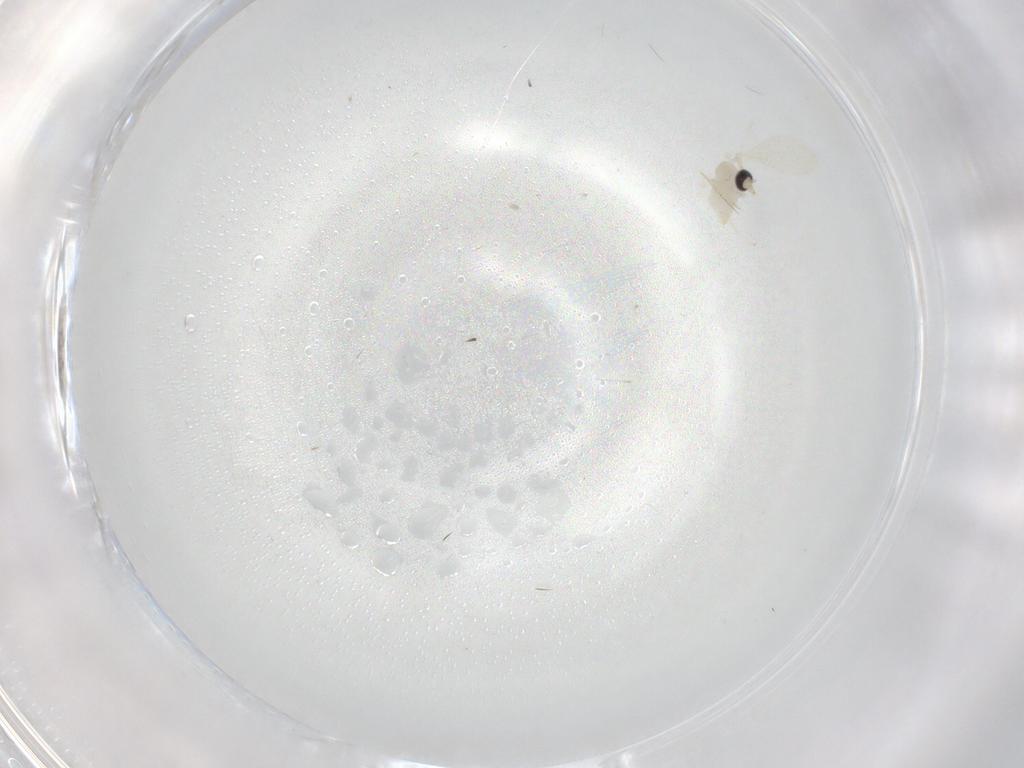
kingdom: Animalia
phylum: Arthropoda
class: Insecta
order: Diptera
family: Chironomidae
